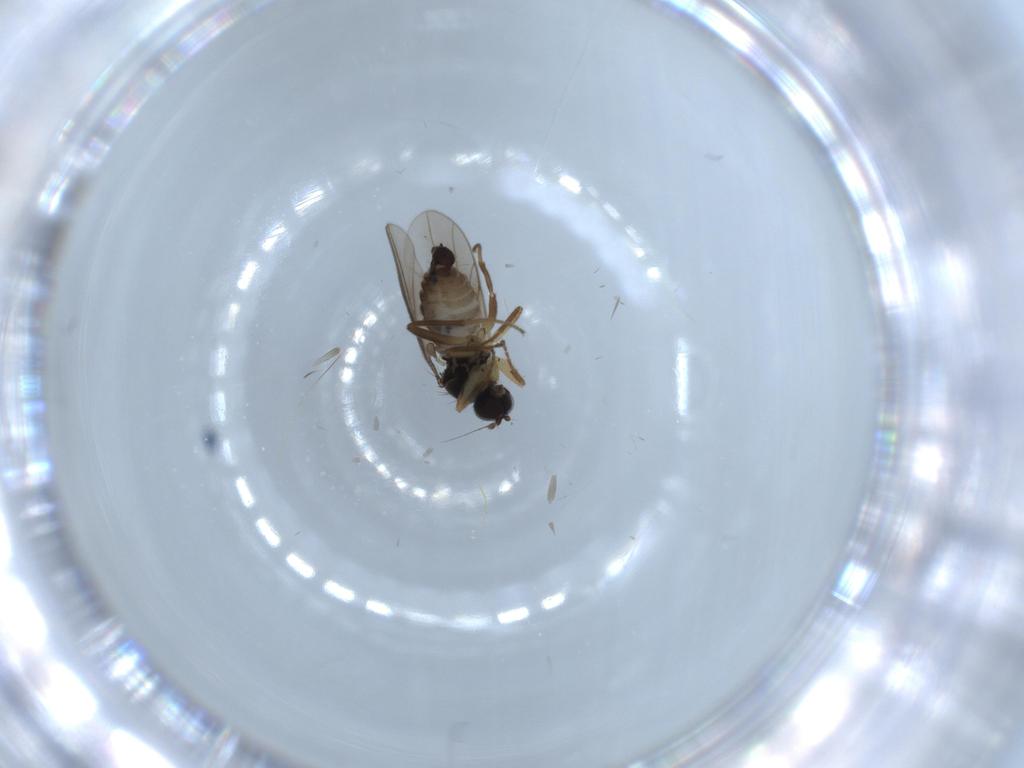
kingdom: Animalia
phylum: Arthropoda
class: Insecta
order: Diptera
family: Hybotidae
